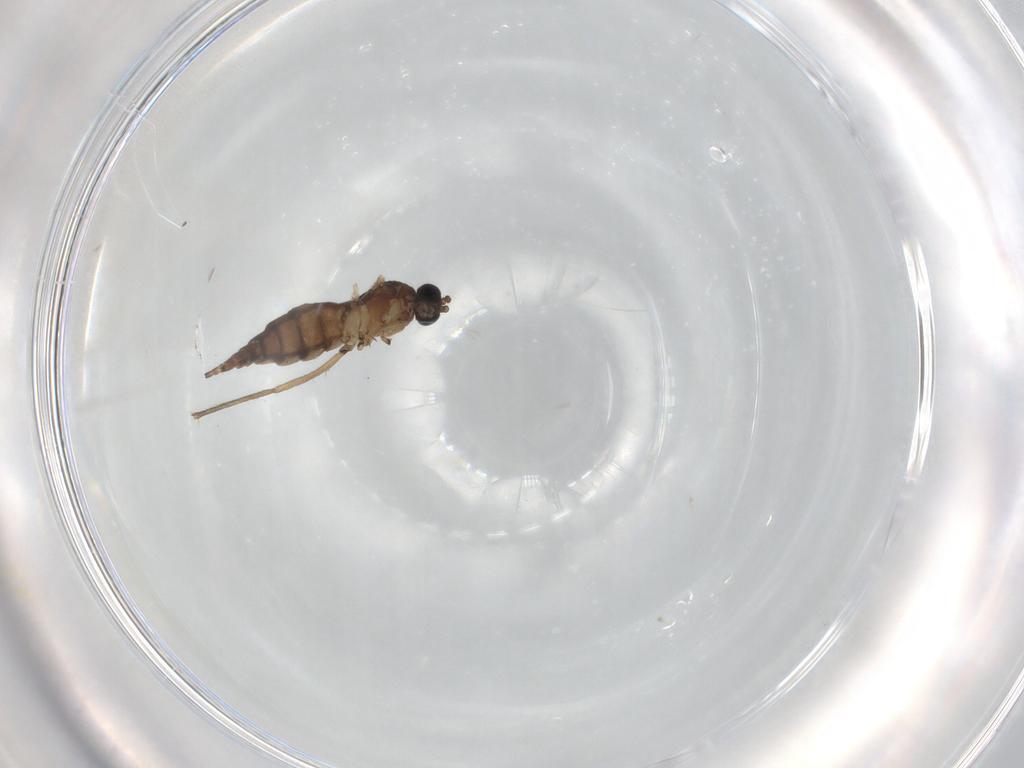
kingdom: Animalia
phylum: Arthropoda
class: Insecta
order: Diptera
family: Sciaridae
